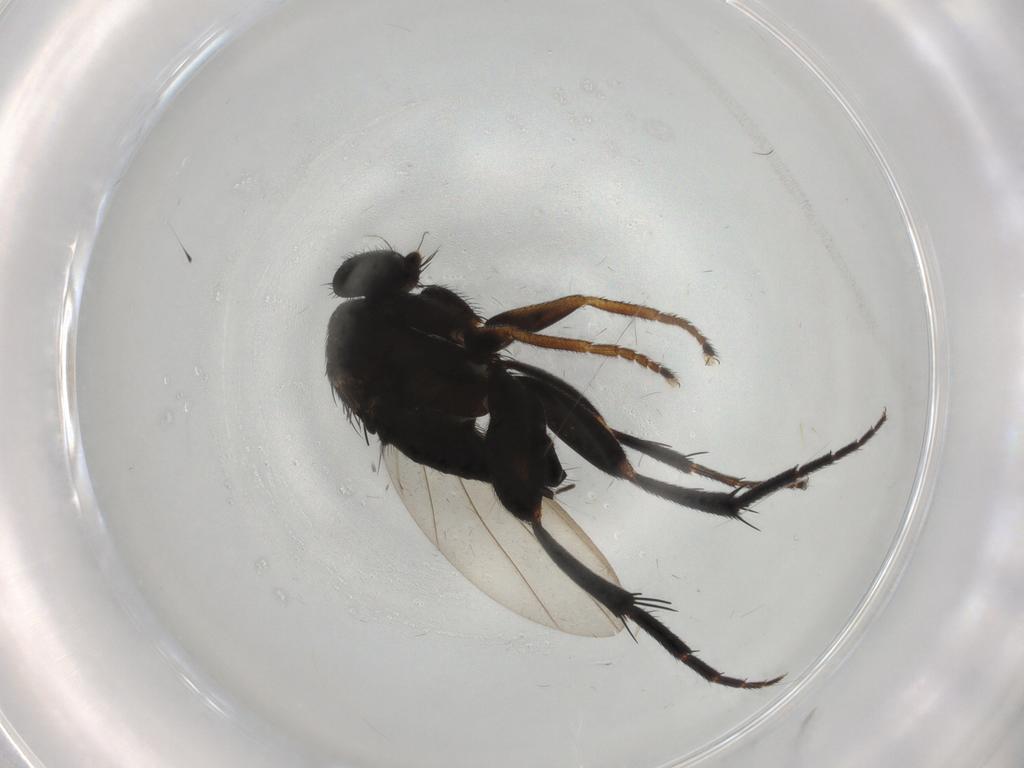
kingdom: Animalia
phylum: Arthropoda
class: Insecta
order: Diptera
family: Phoridae
